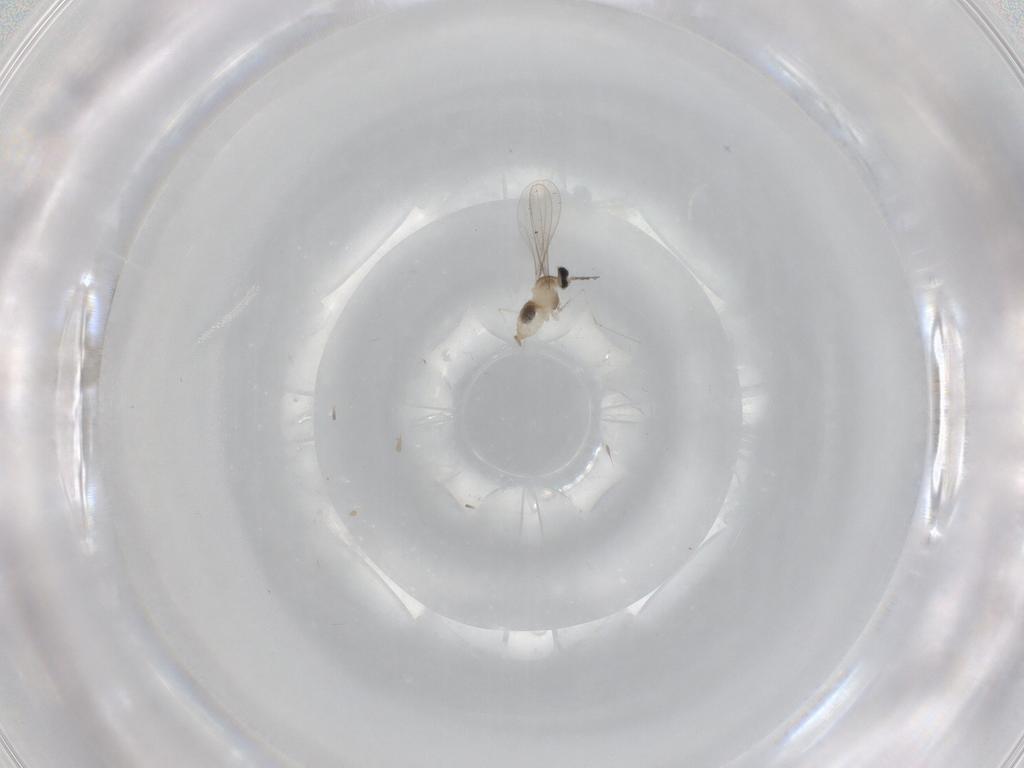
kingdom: Animalia
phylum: Arthropoda
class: Insecta
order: Diptera
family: Cecidomyiidae
